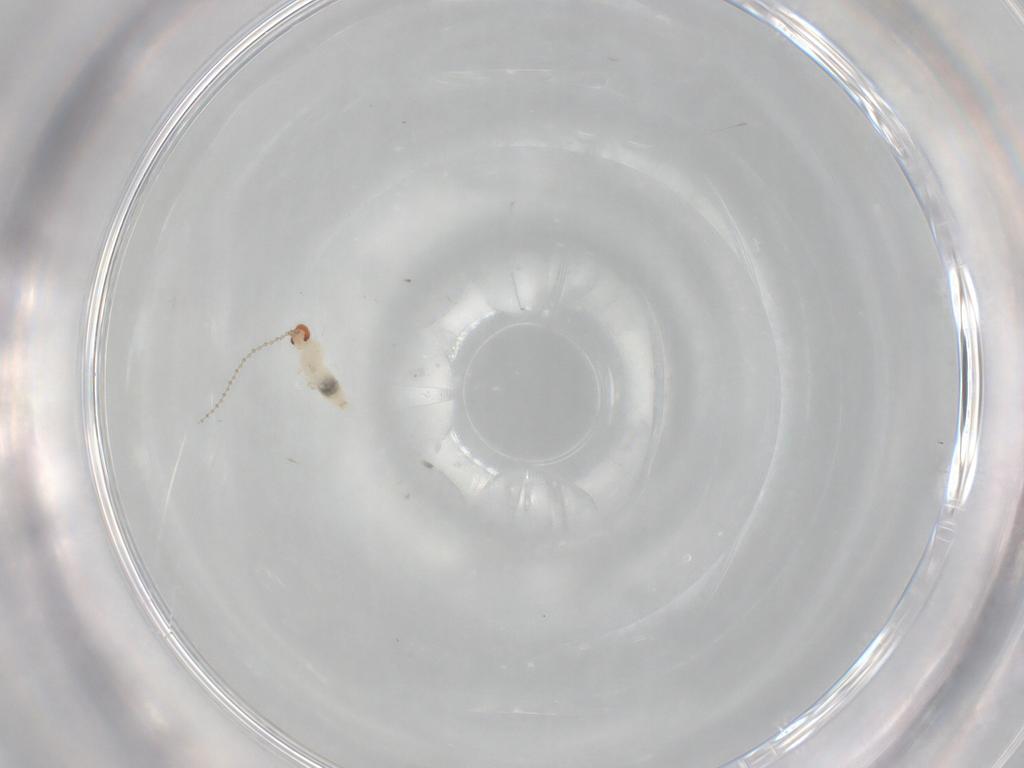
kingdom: Animalia
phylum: Arthropoda
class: Insecta
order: Diptera
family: Cecidomyiidae
